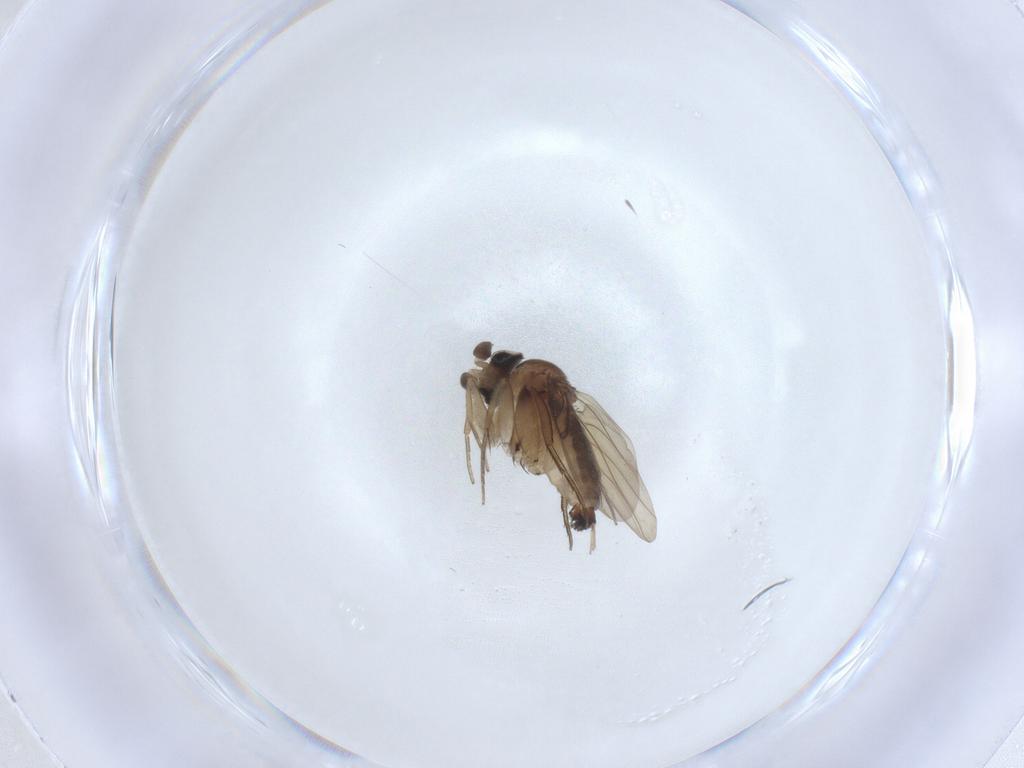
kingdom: Animalia
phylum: Arthropoda
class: Insecta
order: Diptera
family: Phoridae
